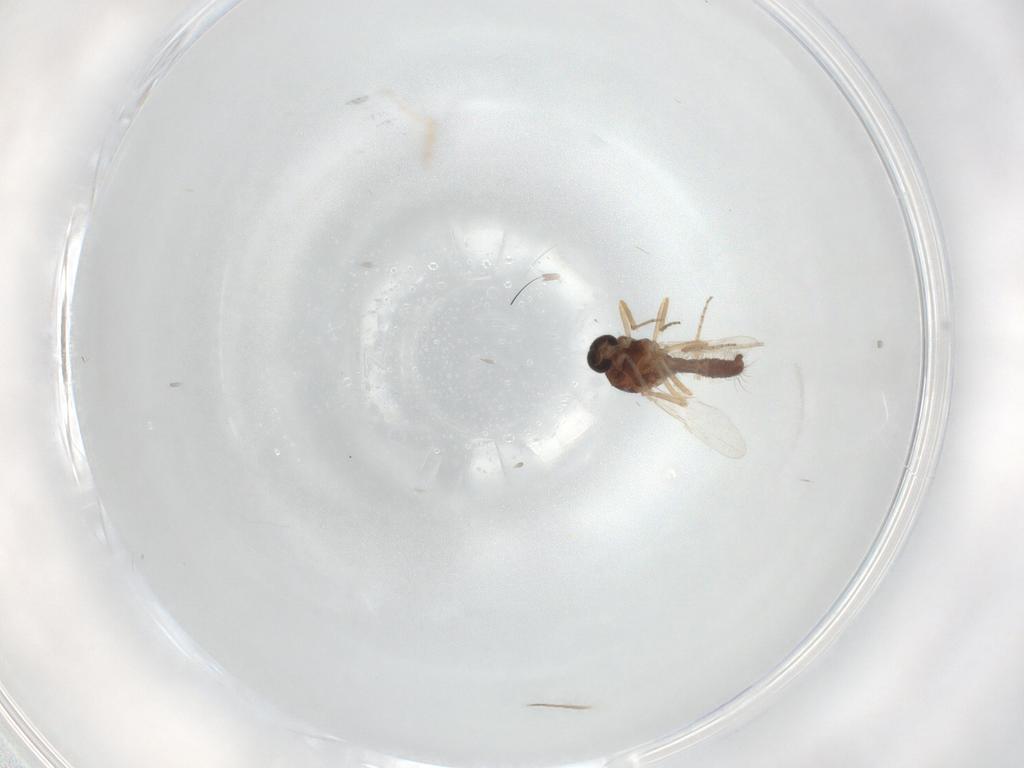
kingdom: Animalia
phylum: Arthropoda
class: Insecta
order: Diptera
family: Ceratopogonidae
